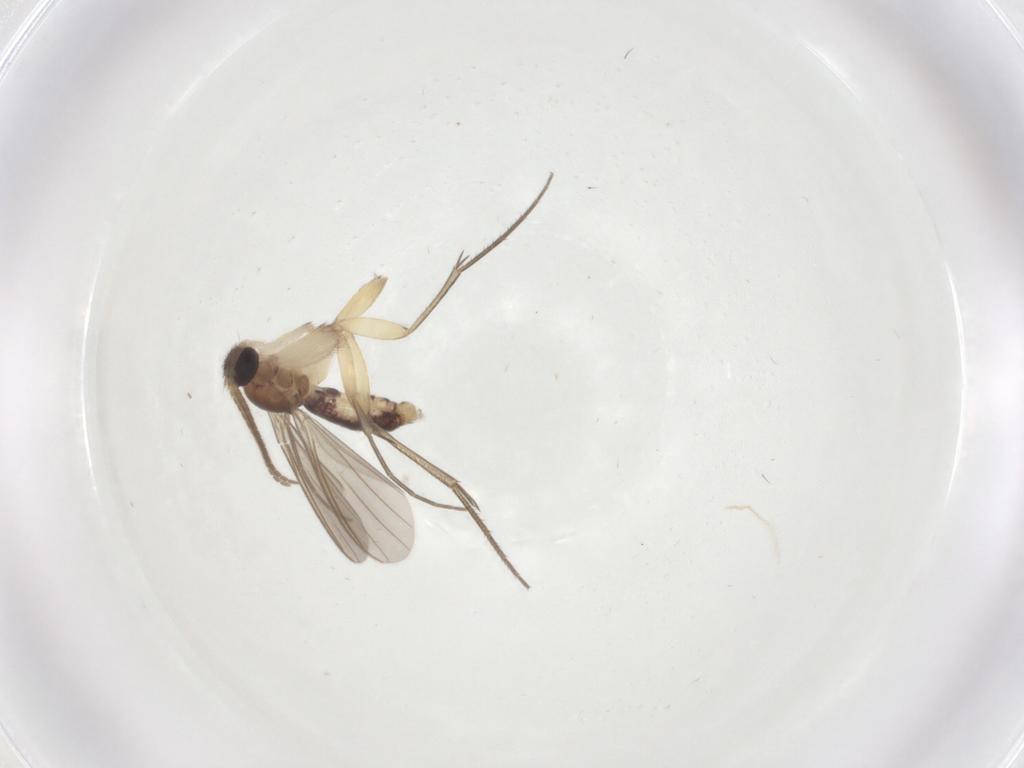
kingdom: Animalia
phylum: Arthropoda
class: Insecta
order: Diptera
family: Mycetophilidae
